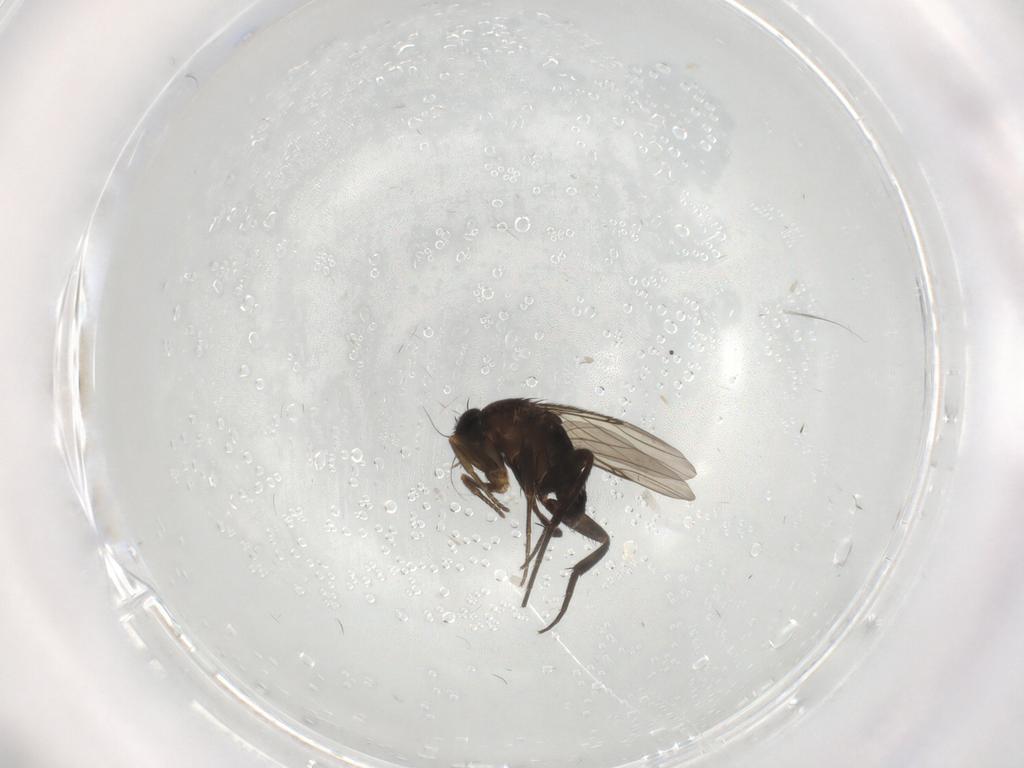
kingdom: Animalia
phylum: Arthropoda
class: Insecta
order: Diptera
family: Phoridae
